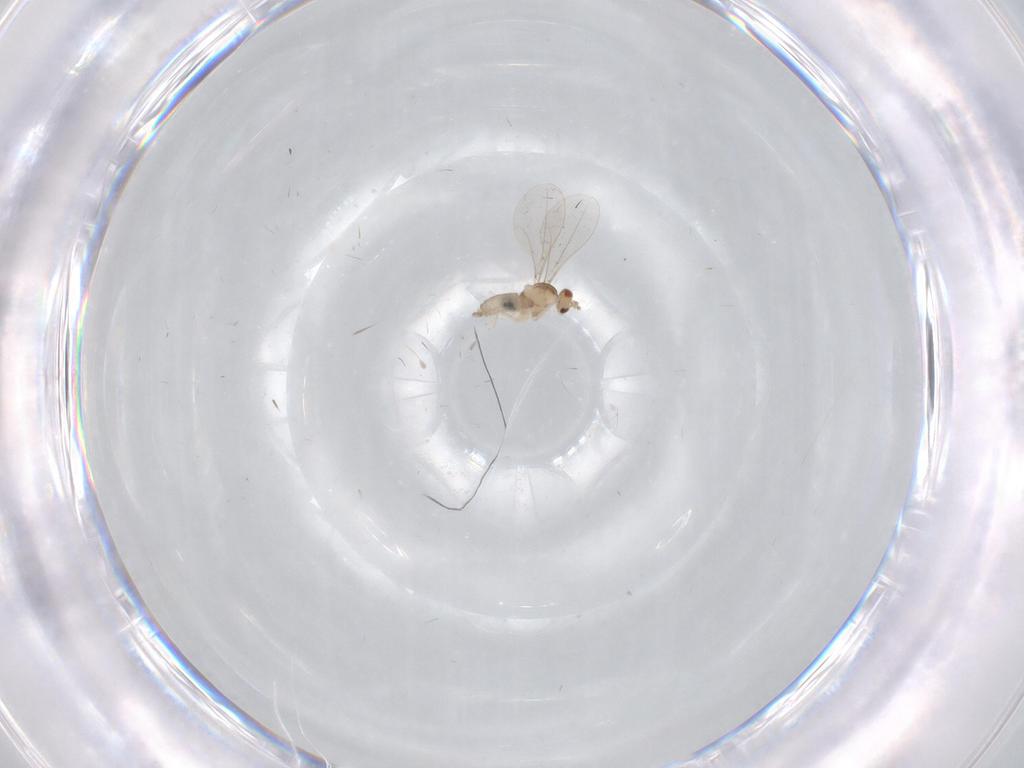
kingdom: Animalia
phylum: Arthropoda
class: Insecta
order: Diptera
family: Cecidomyiidae
